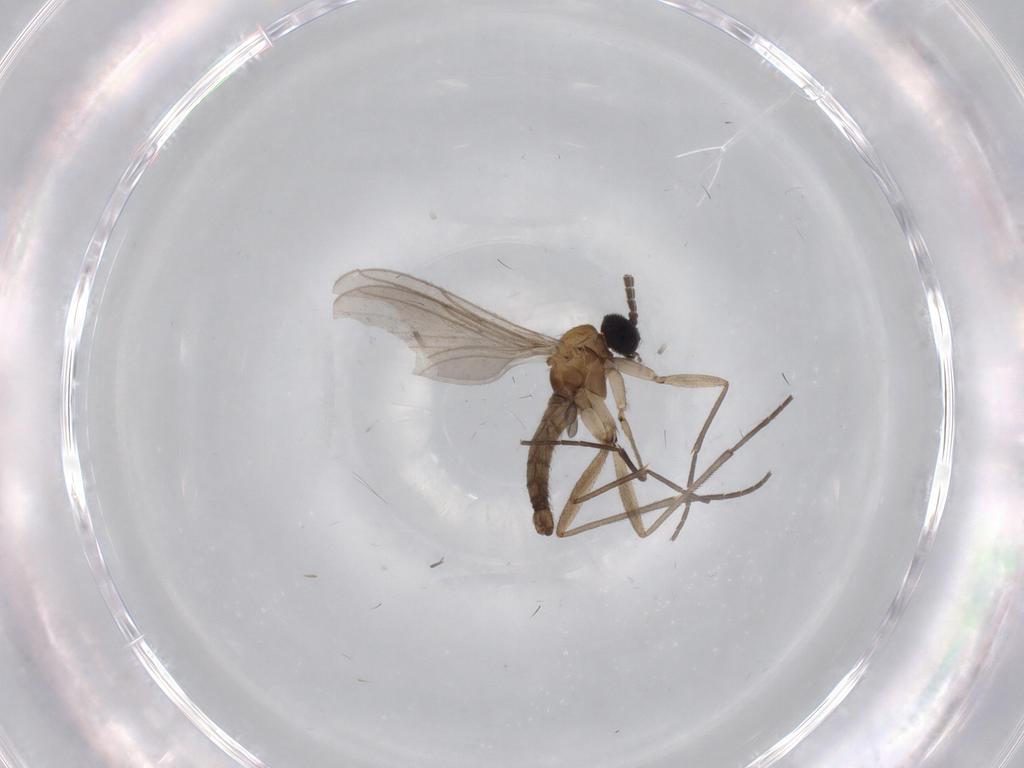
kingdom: Animalia
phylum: Arthropoda
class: Insecta
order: Diptera
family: Sciaridae
